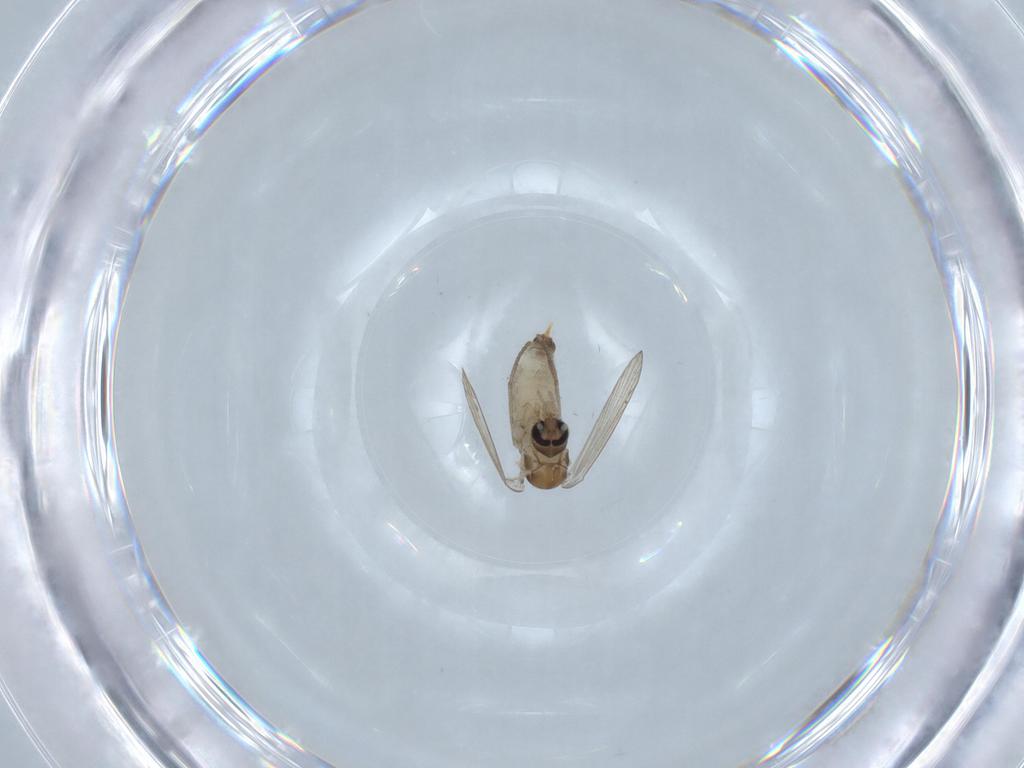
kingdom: Animalia
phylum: Arthropoda
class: Insecta
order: Diptera
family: Psychodidae
